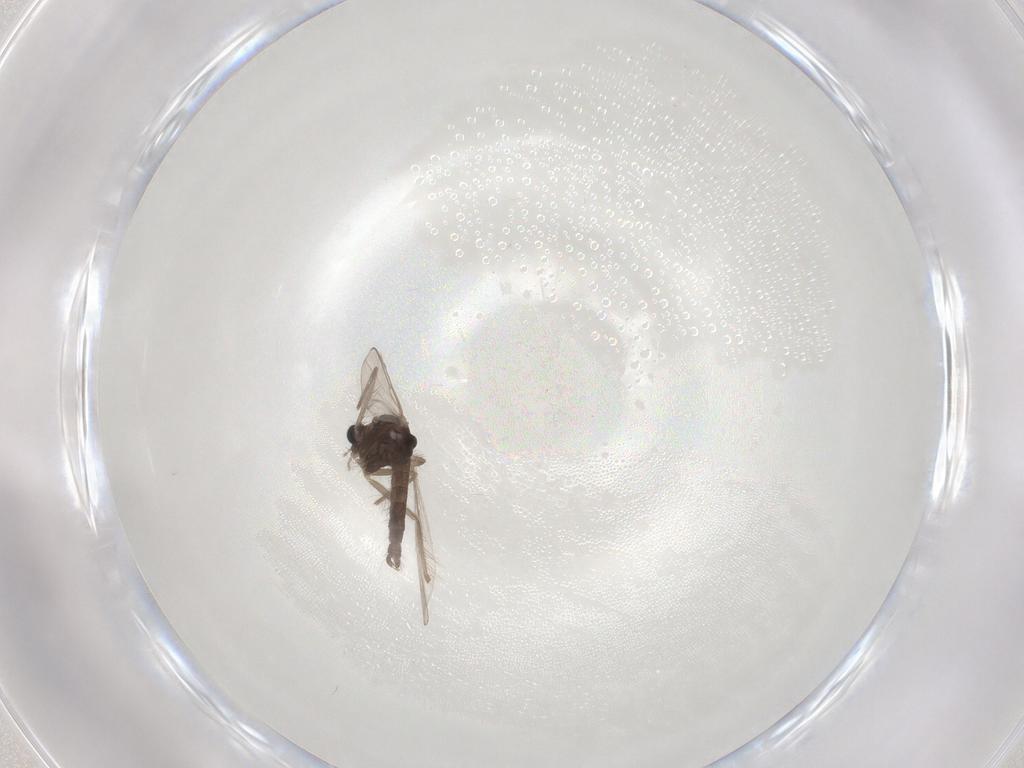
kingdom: Animalia
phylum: Arthropoda
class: Insecta
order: Diptera
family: Chironomidae
